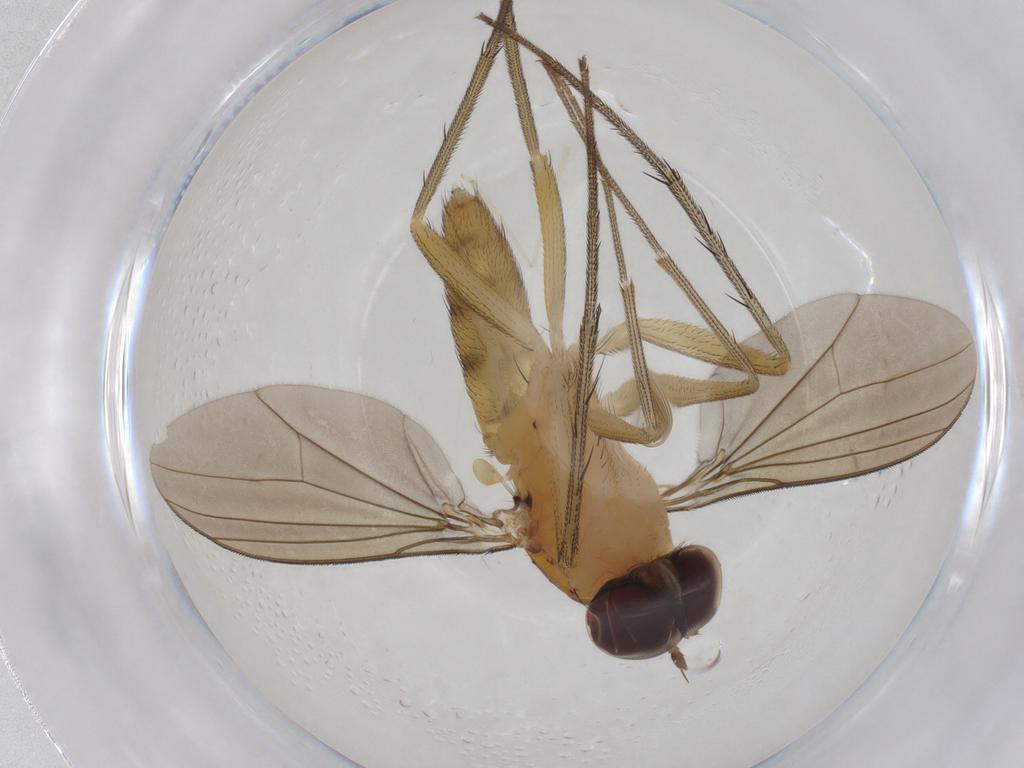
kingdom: Animalia
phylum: Arthropoda
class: Insecta
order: Diptera
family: Dolichopodidae
